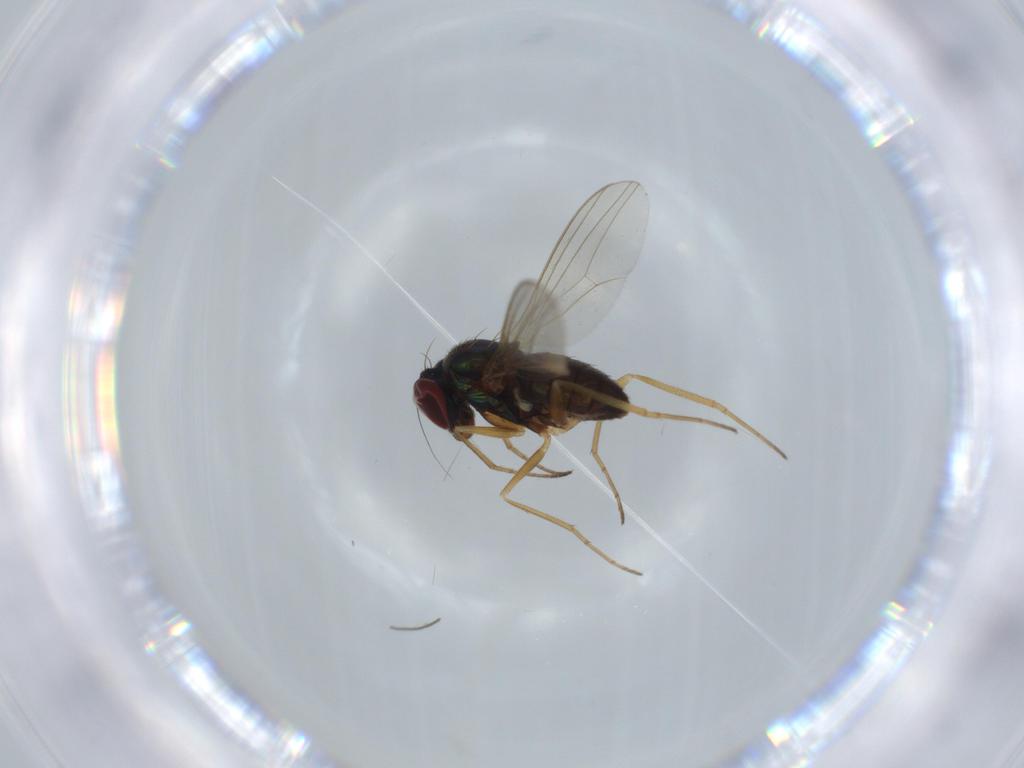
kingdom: Animalia
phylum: Arthropoda
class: Insecta
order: Diptera
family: Dolichopodidae
